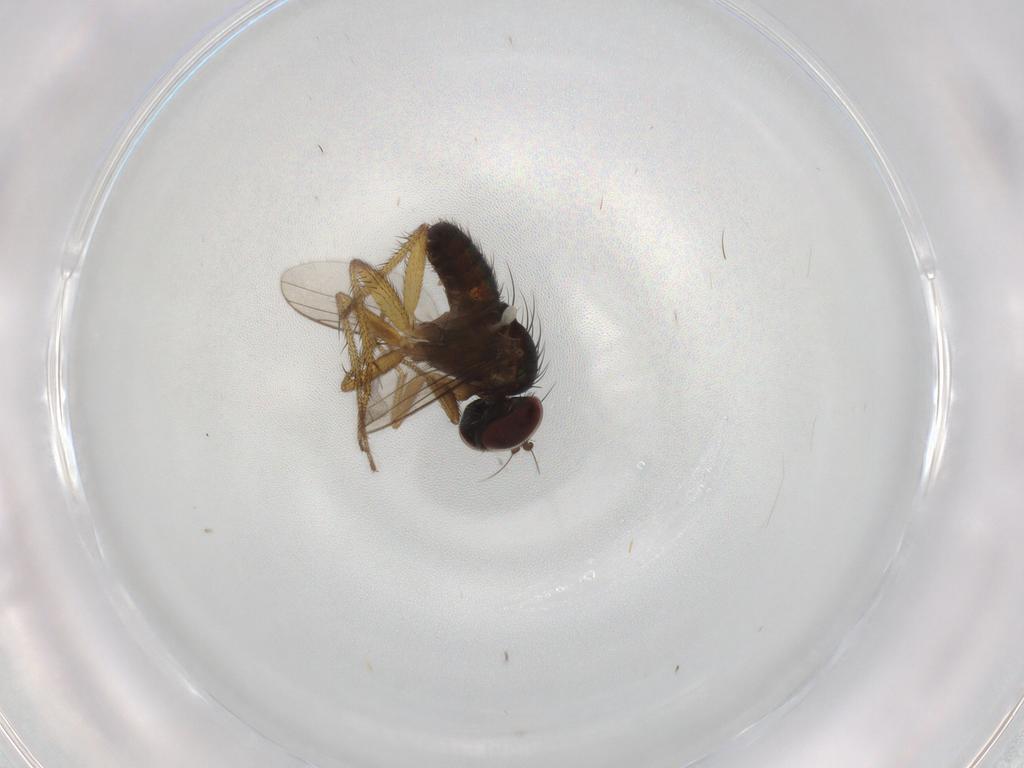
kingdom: Animalia
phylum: Arthropoda
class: Insecta
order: Diptera
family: Dolichopodidae
